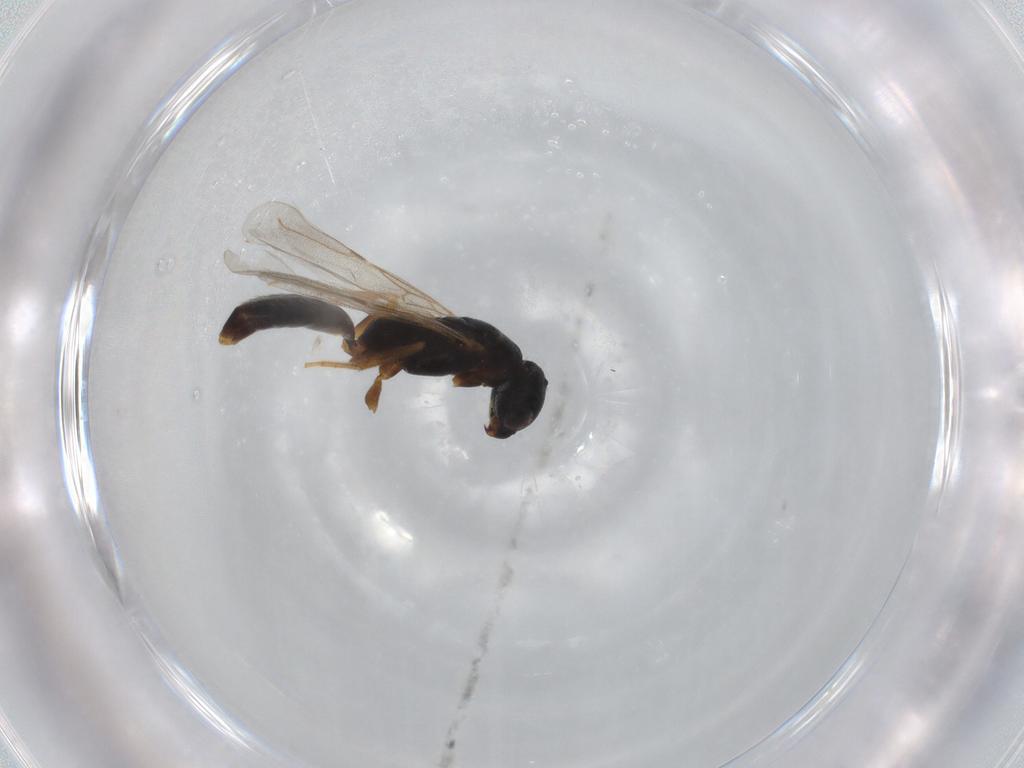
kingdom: Animalia
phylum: Arthropoda
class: Insecta
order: Hymenoptera
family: Bethylidae
